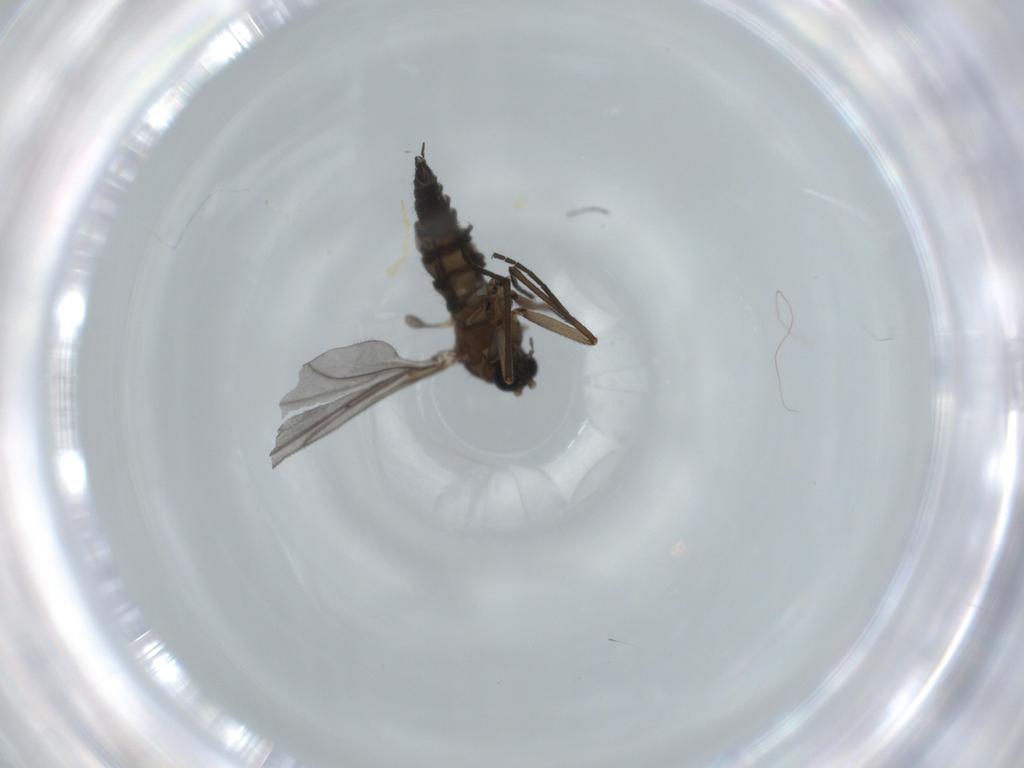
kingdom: Animalia
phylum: Arthropoda
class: Insecta
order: Diptera
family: Sciaridae
